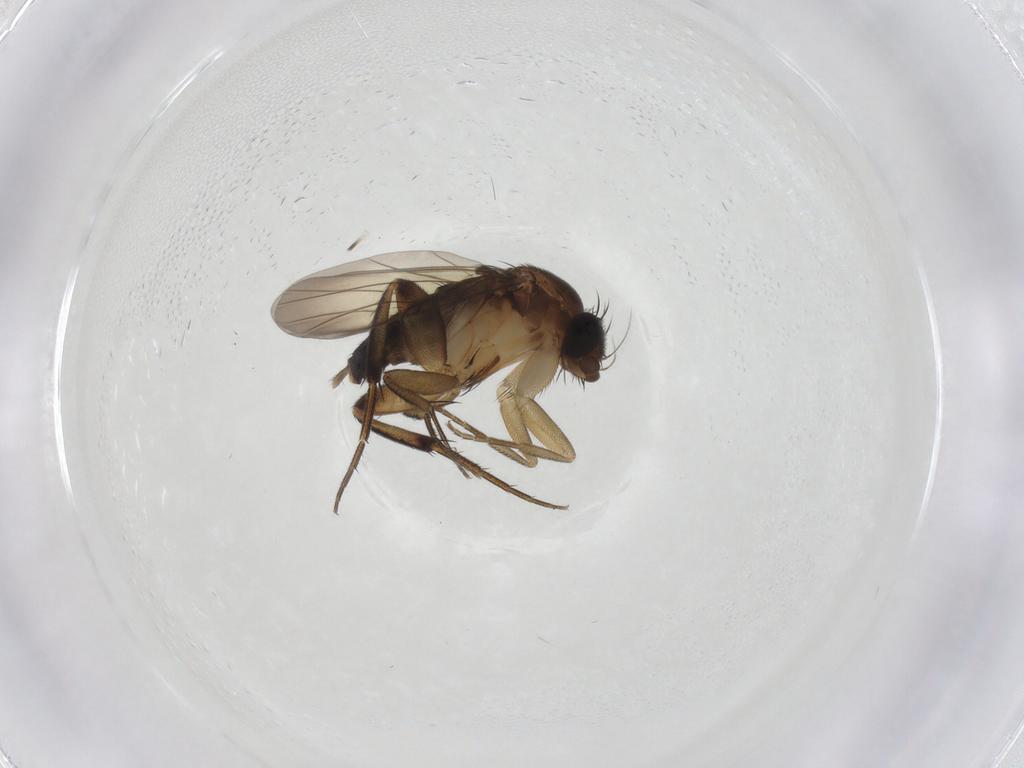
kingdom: Animalia
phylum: Arthropoda
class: Insecta
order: Diptera
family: Phoridae
